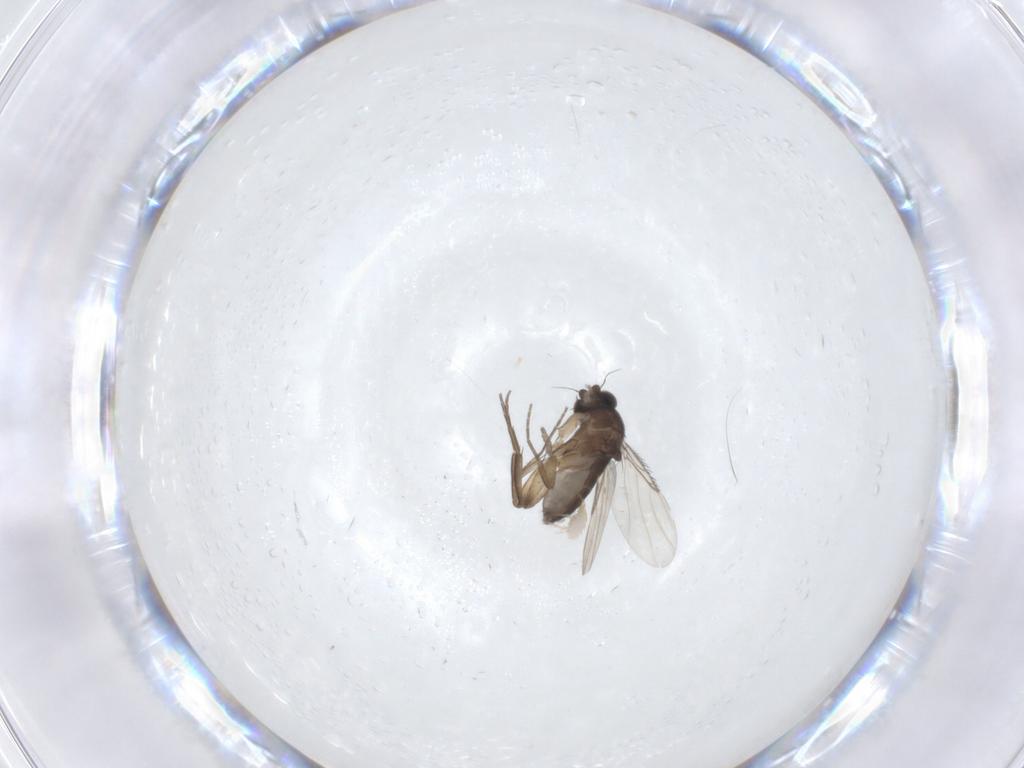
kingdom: Animalia
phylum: Arthropoda
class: Insecta
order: Diptera
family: Phoridae
